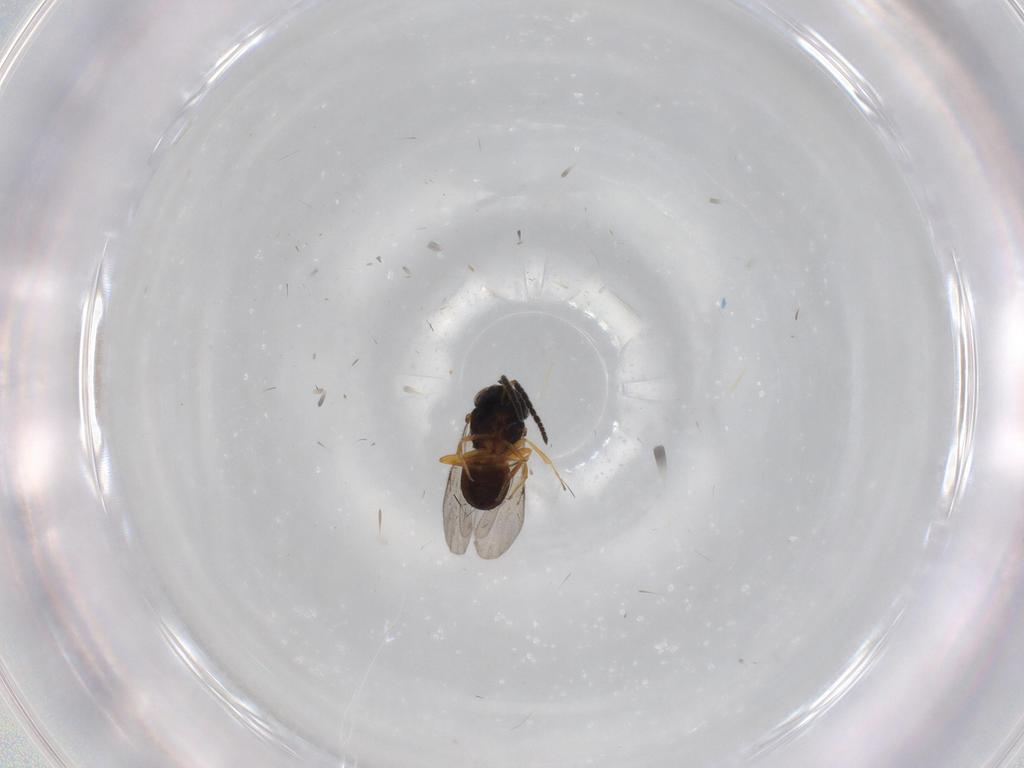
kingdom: Animalia
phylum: Arthropoda
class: Insecta
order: Coleoptera
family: Curculionidae
